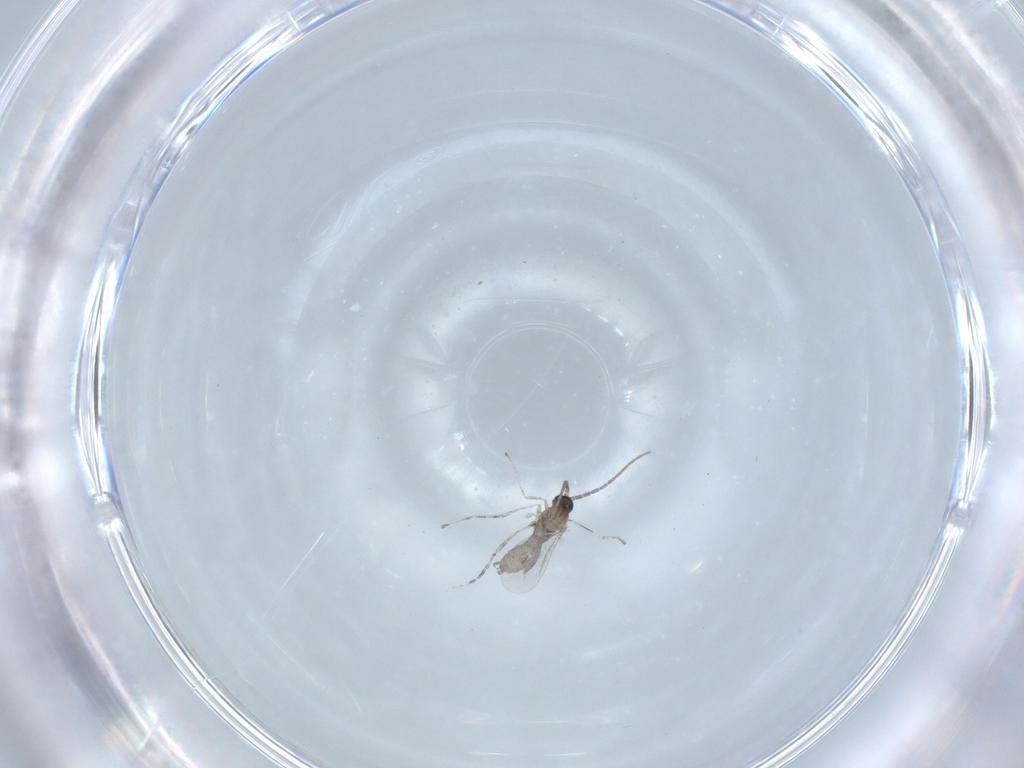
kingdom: Animalia
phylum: Arthropoda
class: Insecta
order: Diptera
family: Cecidomyiidae
